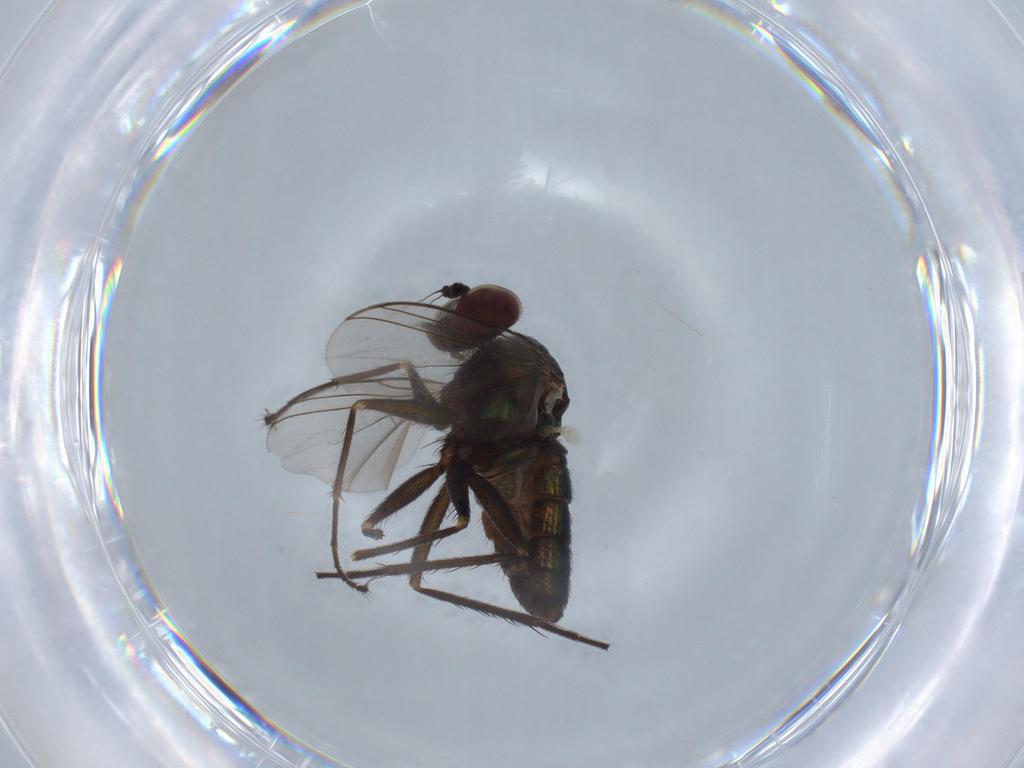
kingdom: Animalia
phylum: Arthropoda
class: Insecta
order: Diptera
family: Dolichopodidae
